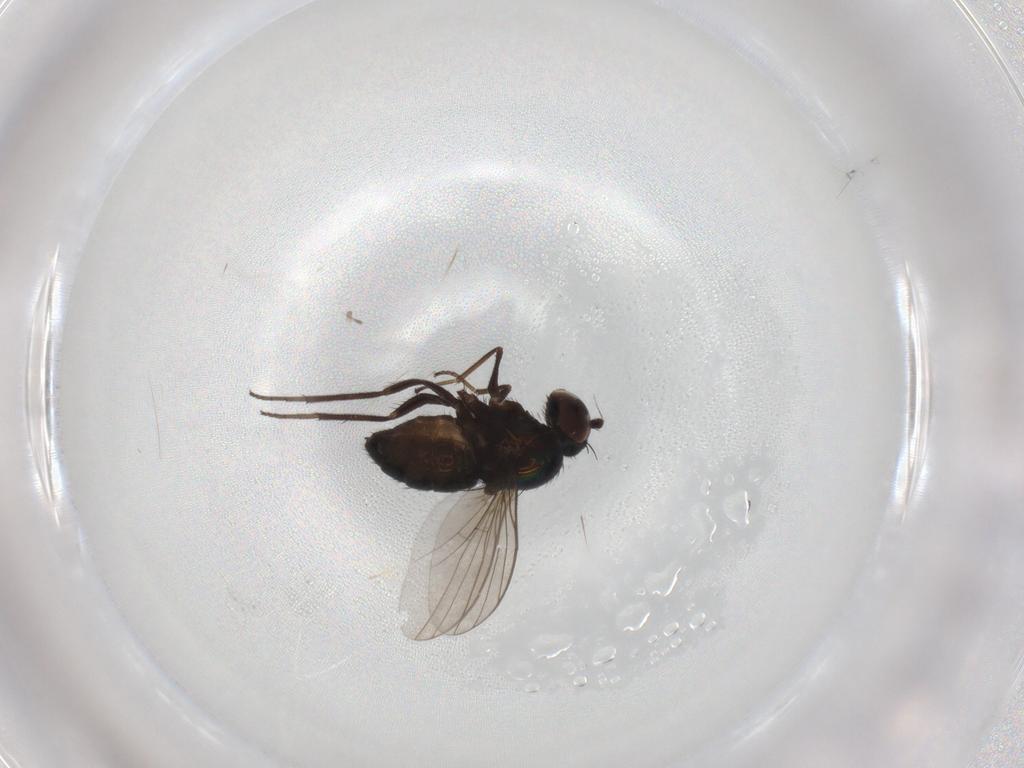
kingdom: Animalia
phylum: Arthropoda
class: Insecta
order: Diptera
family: Dolichopodidae
